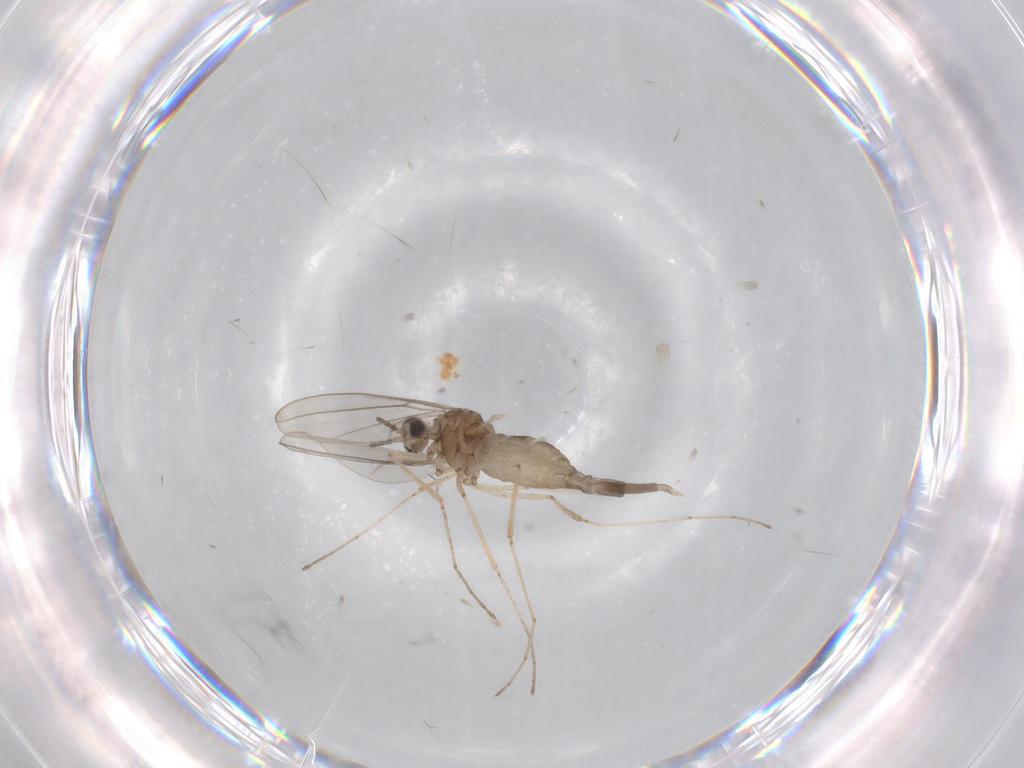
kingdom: Animalia
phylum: Arthropoda
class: Insecta
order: Diptera
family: Cecidomyiidae
